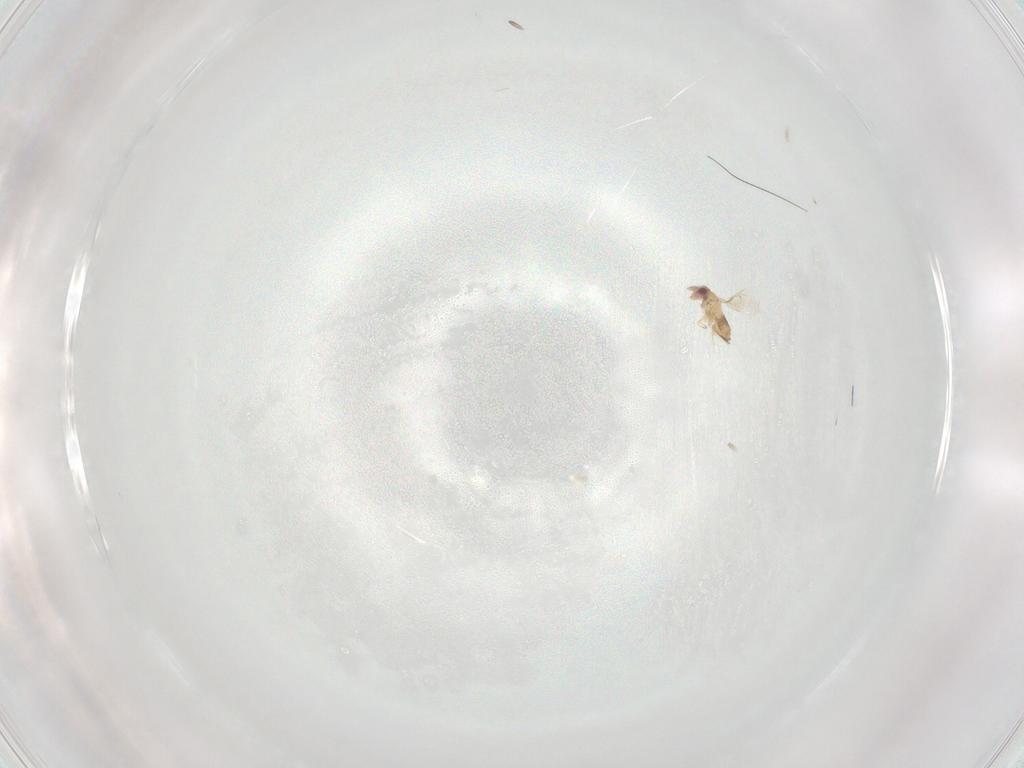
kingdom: Animalia
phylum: Arthropoda
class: Insecta
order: Hymenoptera
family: Trichogrammatidae
